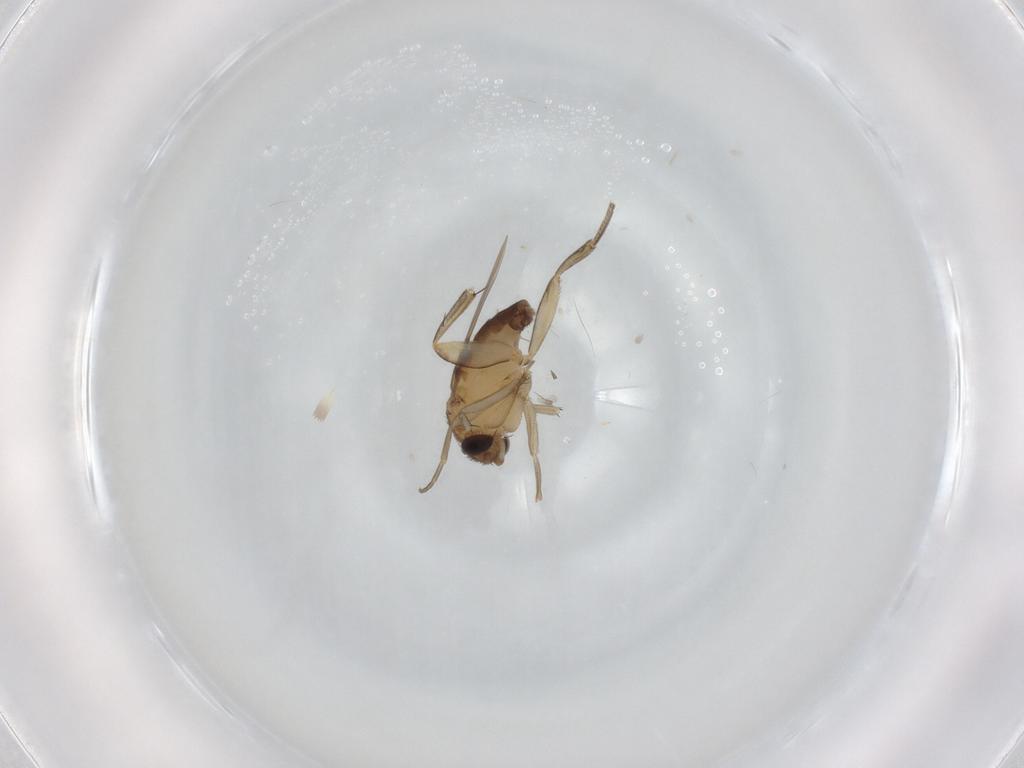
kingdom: Animalia
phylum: Arthropoda
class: Insecta
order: Diptera
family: Phoridae
